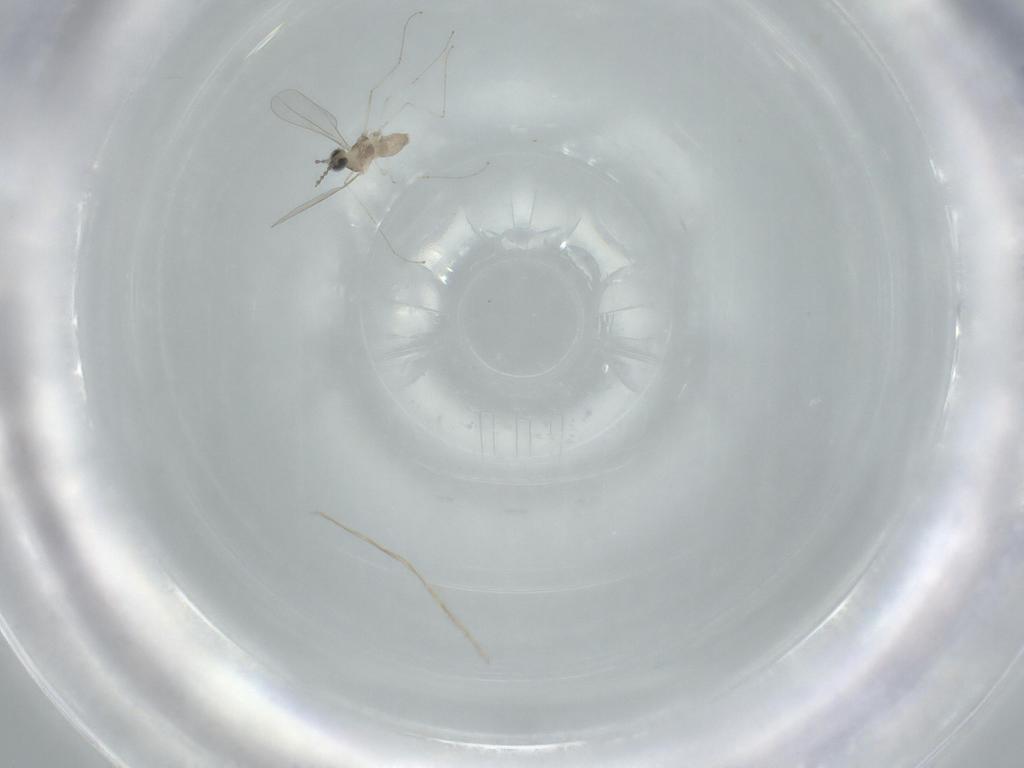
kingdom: Animalia
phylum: Arthropoda
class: Insecta
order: Diptera
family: Cecidomyiidae
